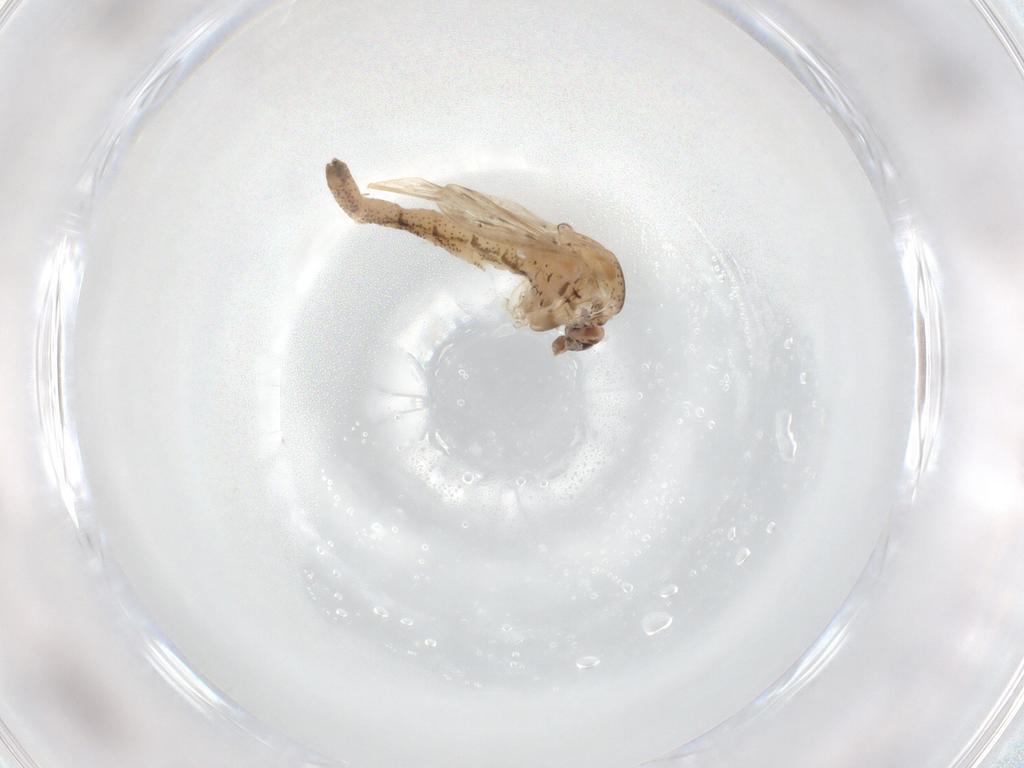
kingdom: Animalia
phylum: Arthropoda
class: Insecta
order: Diptera
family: Chaoboridae
